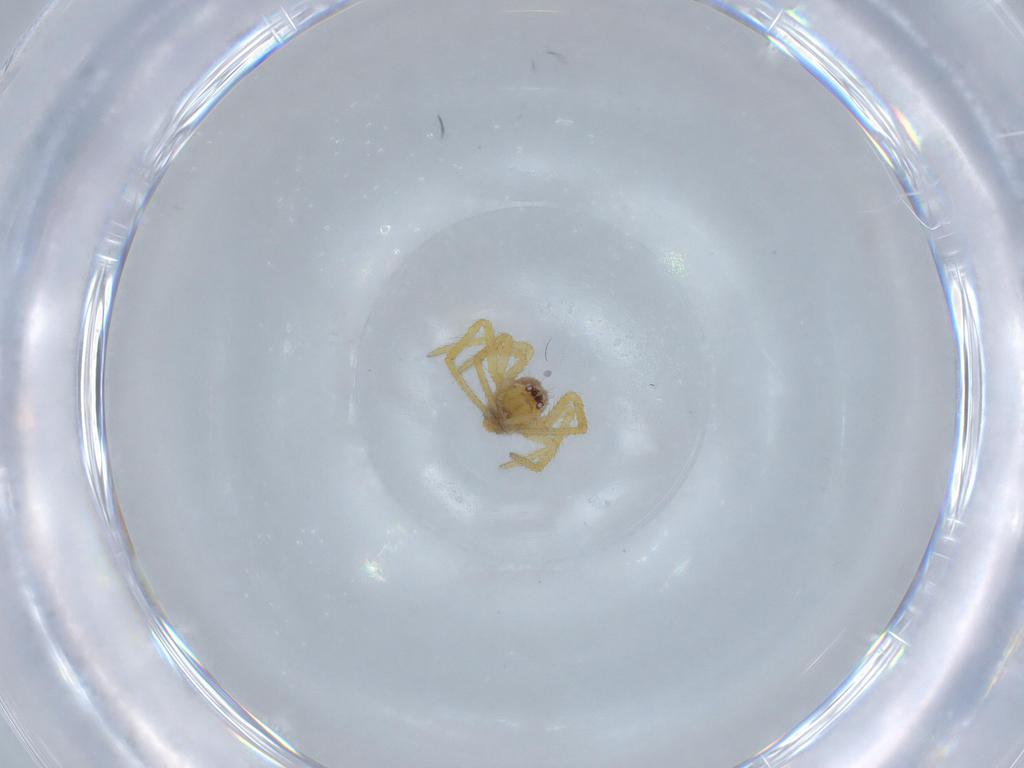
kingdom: Animalia
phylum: Arthropoda
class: Arachnida
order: Araneae
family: Theridiidae
